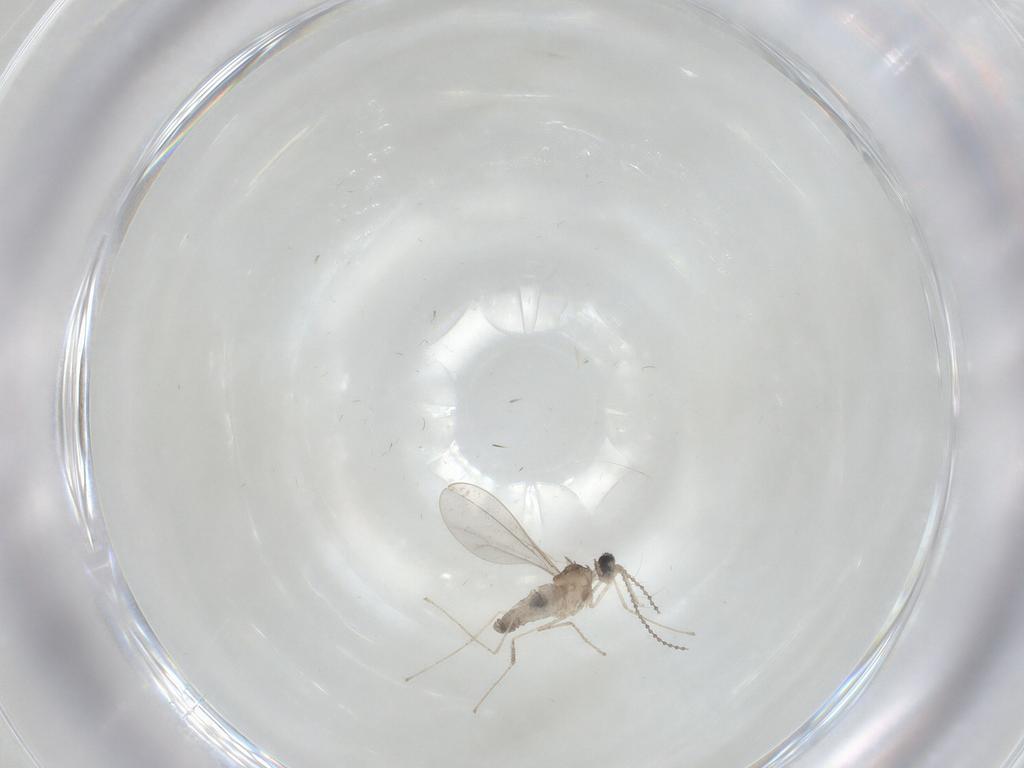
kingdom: Animalia
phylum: Arthropoda
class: Insecta
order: Diptera
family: Cecidomyiidae
